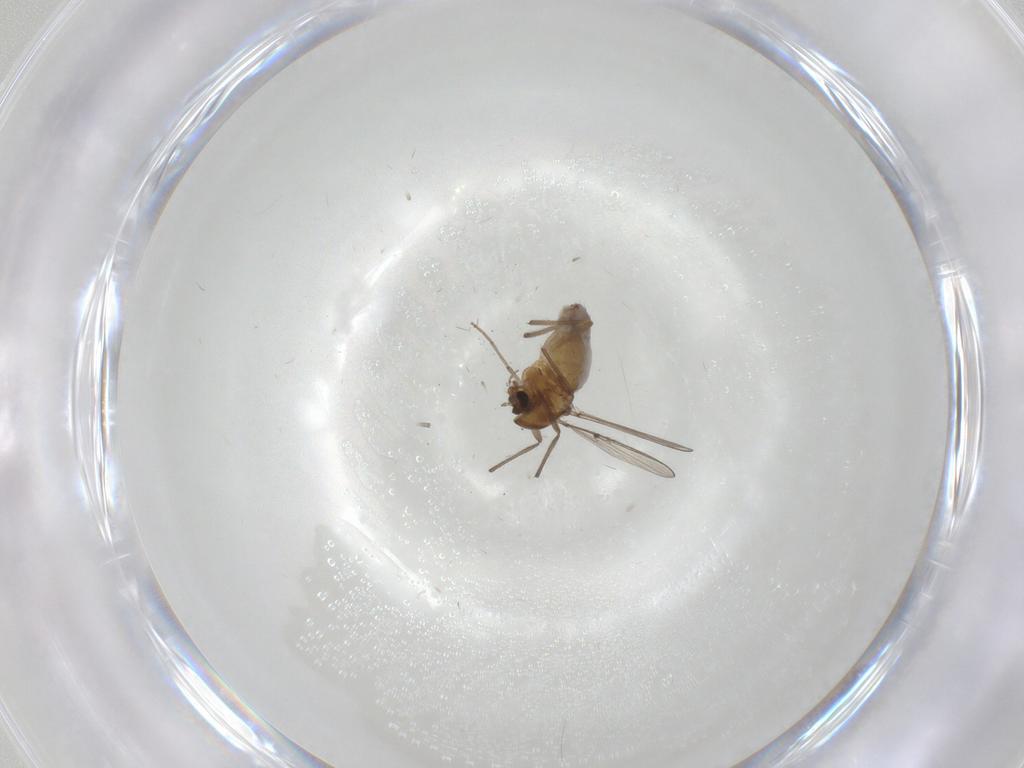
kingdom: Animalia
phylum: Arthropoda
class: Insecta
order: Diptera
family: Chironomidae
